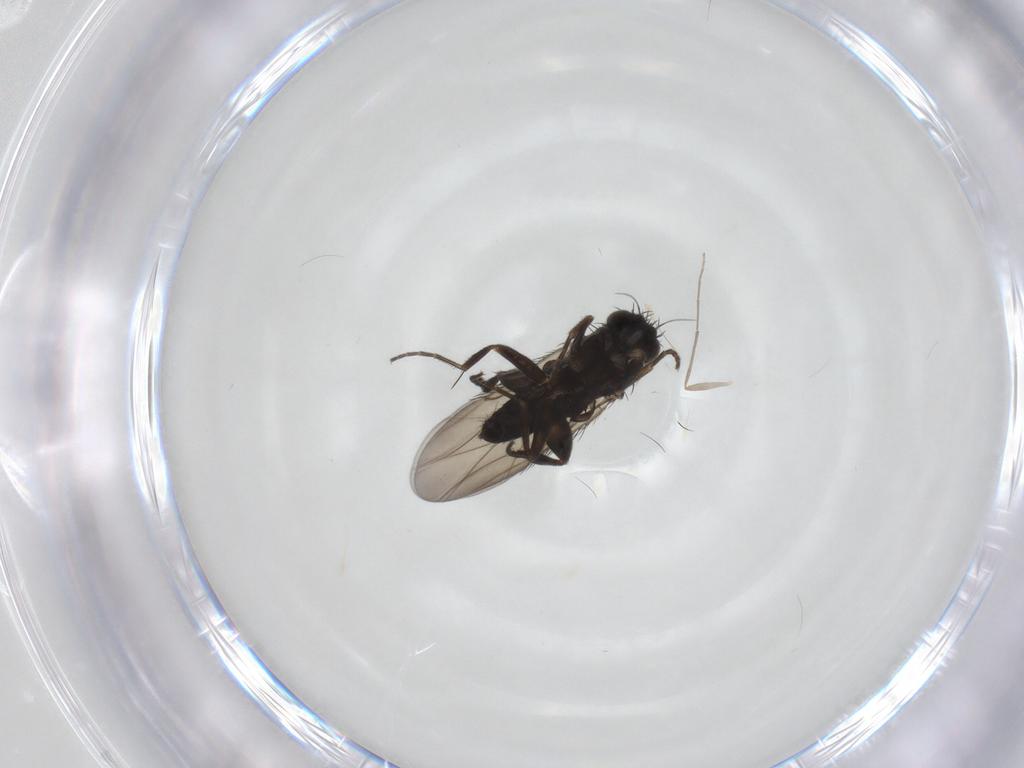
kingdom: Animalia
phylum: Arthropoda
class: Insecta
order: Diptera
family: Phoridae
